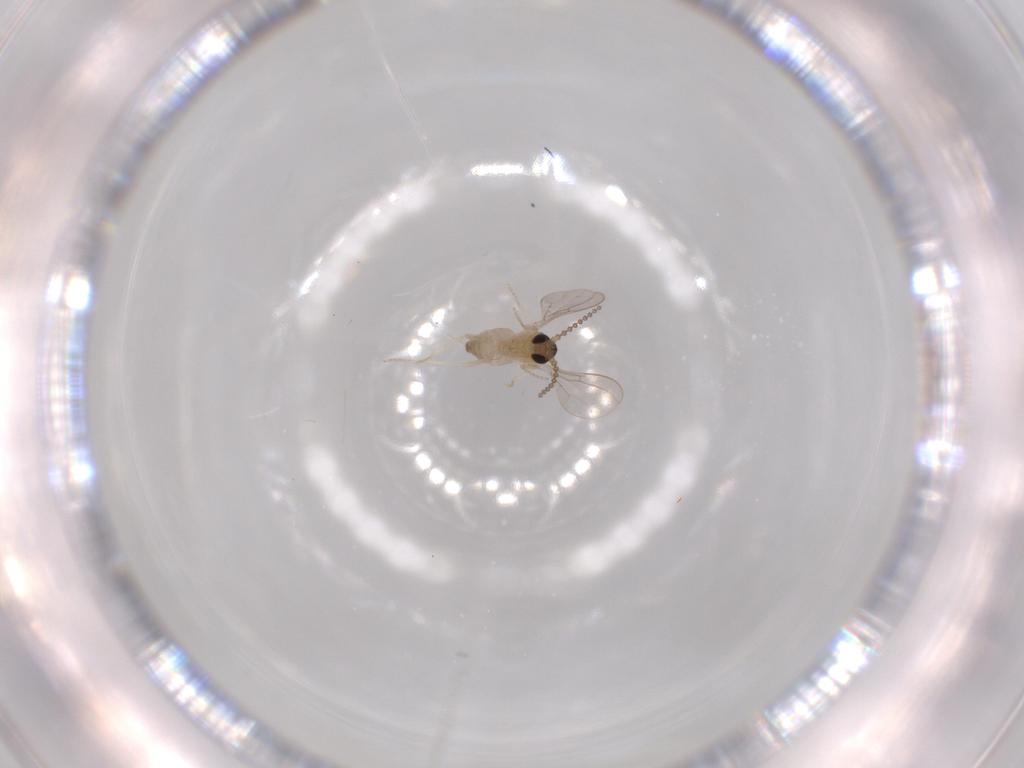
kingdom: Animalia
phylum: Arthropoda
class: Insecta
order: Diptera
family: Cecidomyiidae
